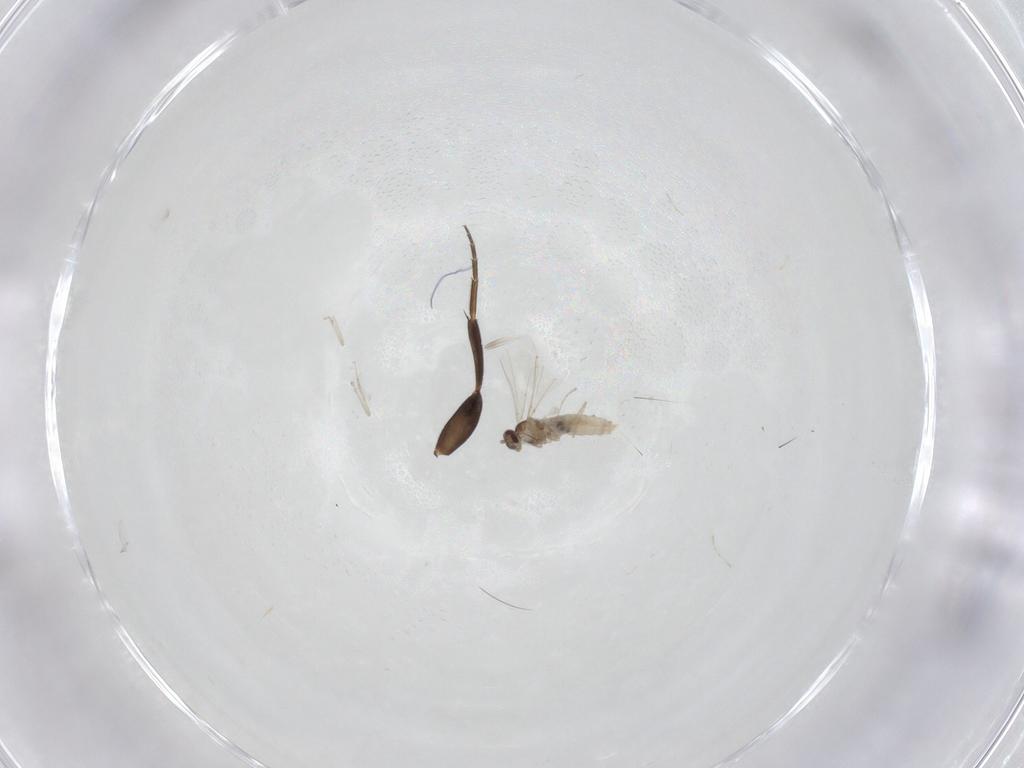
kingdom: Animalia
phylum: Arthropoda
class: Insecta
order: Diptera
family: Cecidomyiidae
